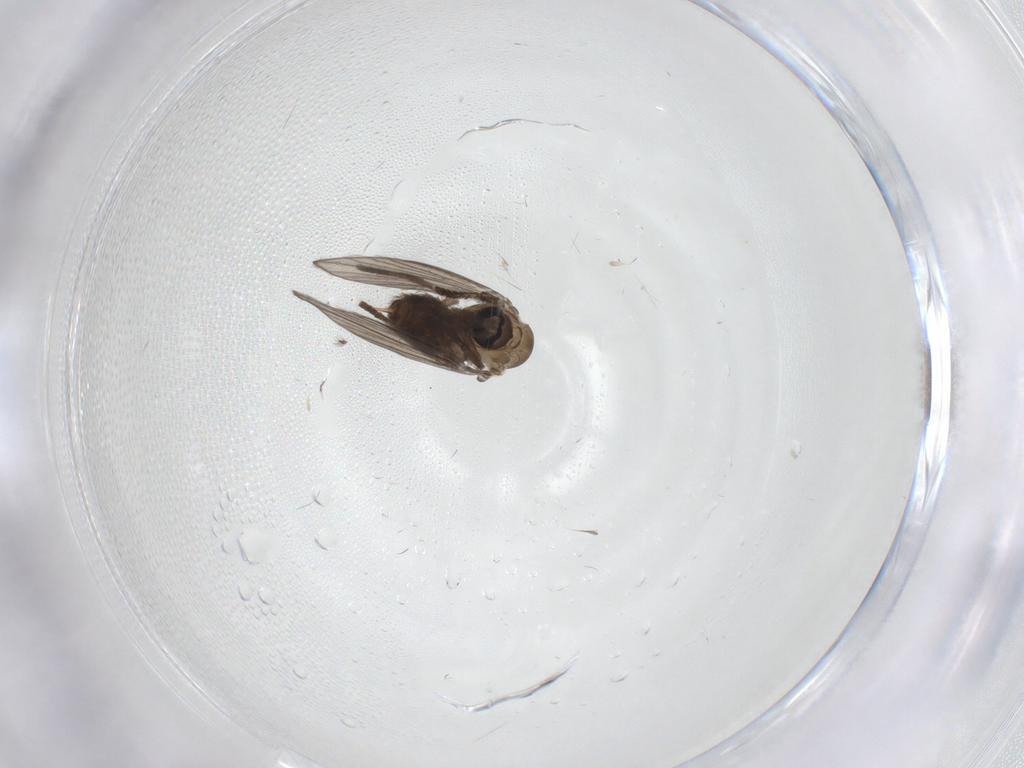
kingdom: Animalia
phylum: Arthropoda
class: Insecta
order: Diptera
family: Psychodidae
